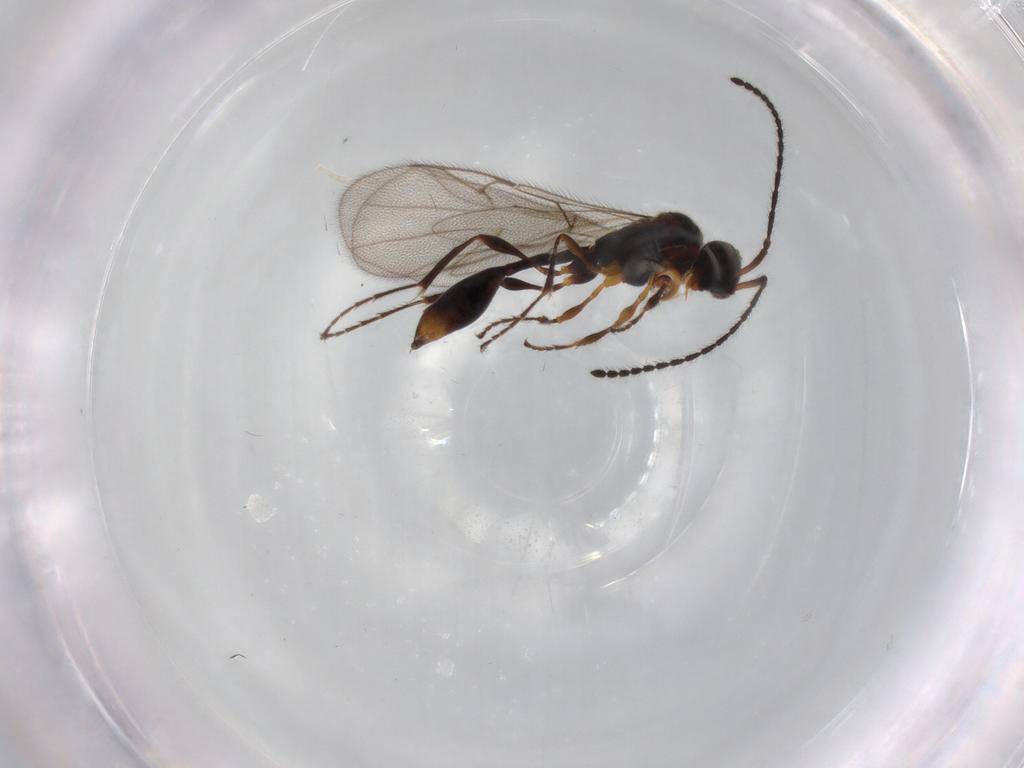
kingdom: Animalia
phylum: Arthropoda
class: Insecta
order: Hymenoptera
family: Diapriidae
